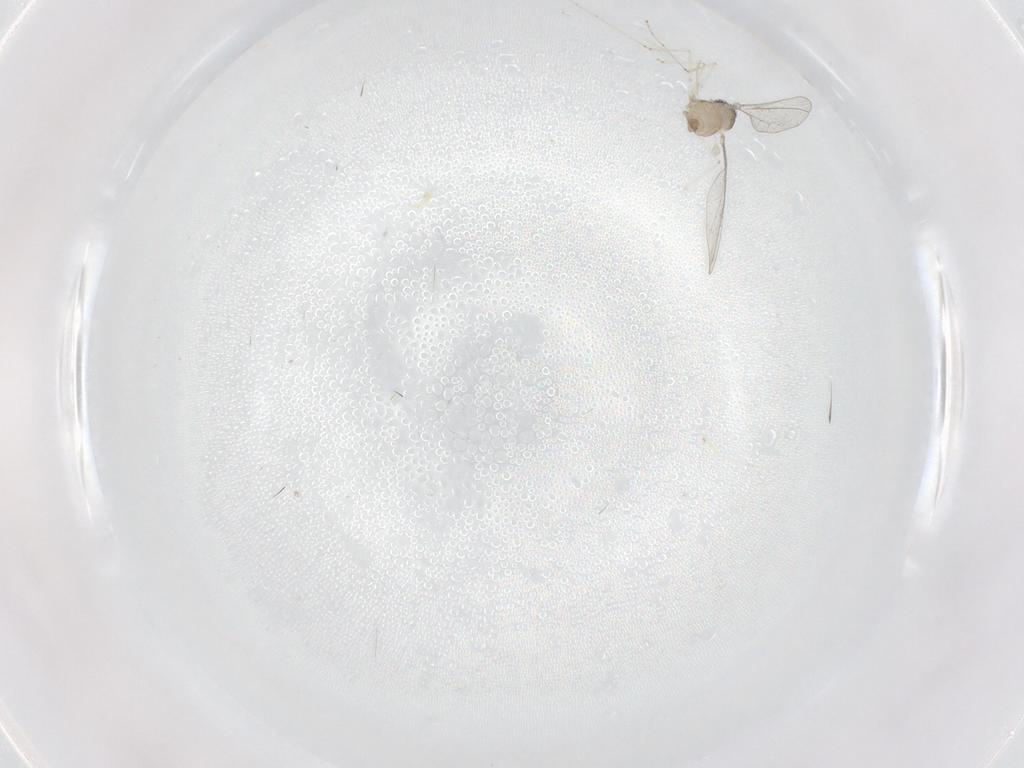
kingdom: Animalia
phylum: Arthropoda
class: Insecta
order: Diptera
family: Cecidomyiidae
